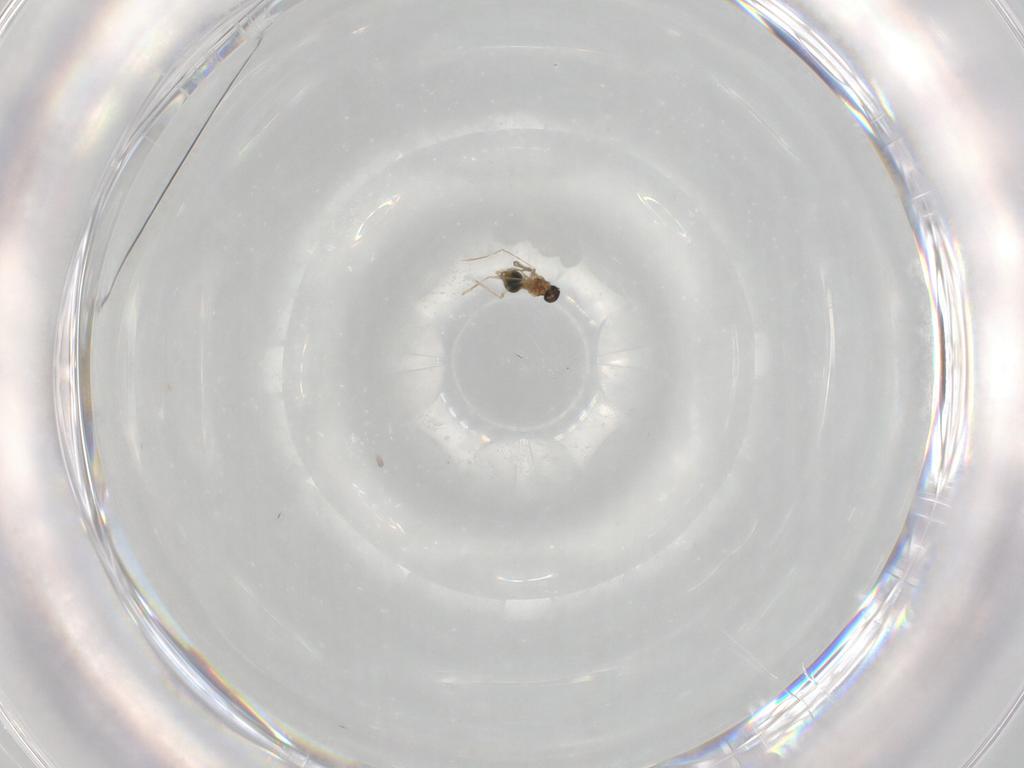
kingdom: Animalia
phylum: Arthropoda
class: Insecta
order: Diptera
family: Cecidomyiidae
